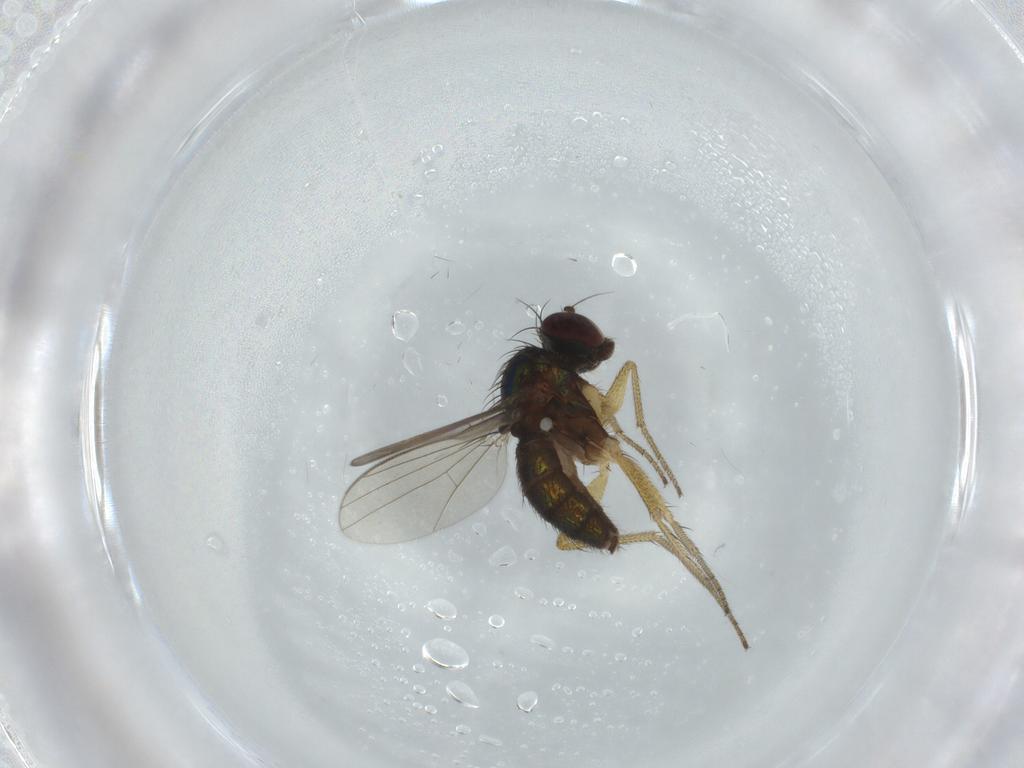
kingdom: Animalia
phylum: Arthropoda
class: Insecta
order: Diptera
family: Dolichopodidae
